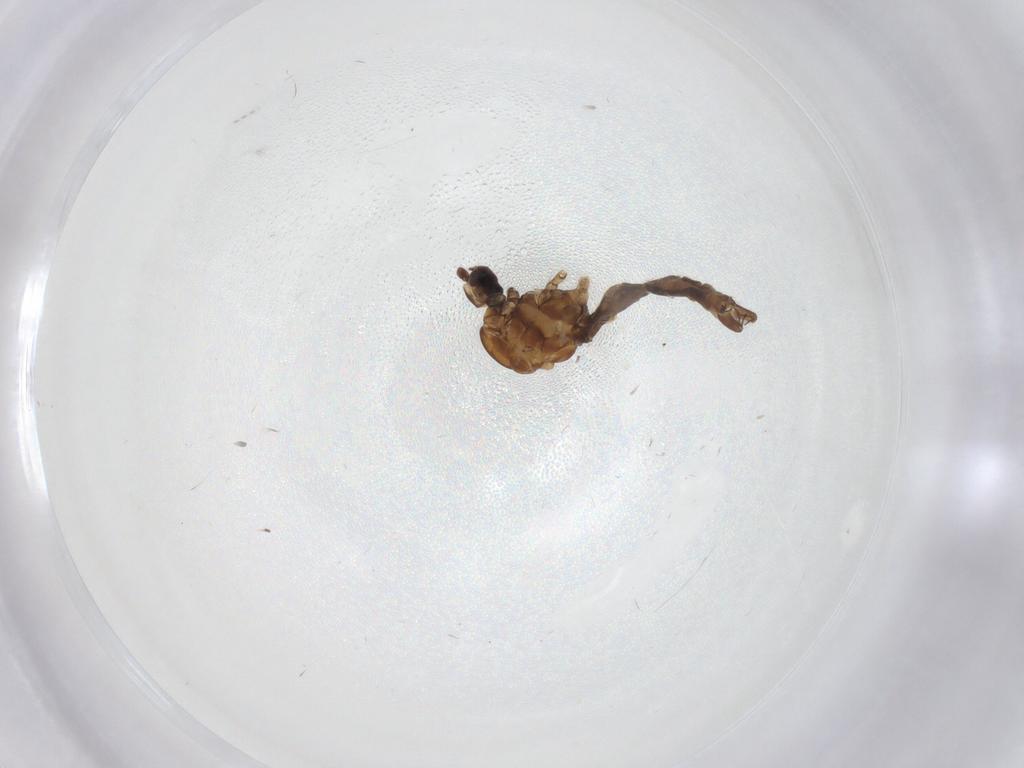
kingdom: Animalia
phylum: Arthropoda
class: Insecta
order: Diptera
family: Limoniidae
